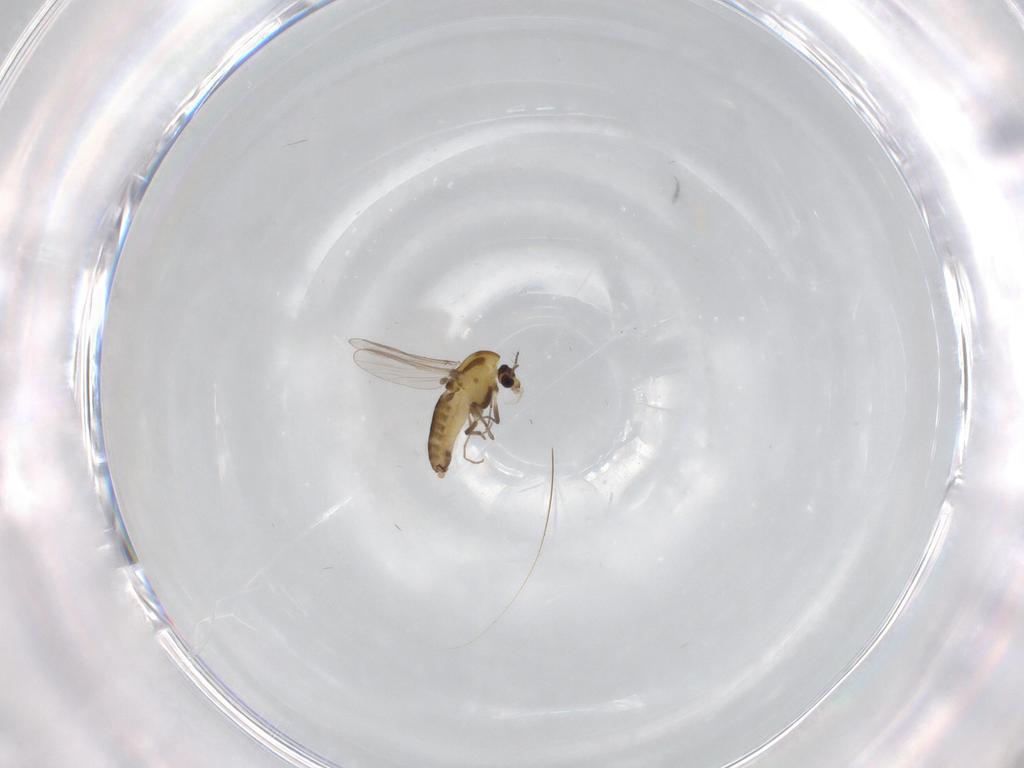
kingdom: Animalia
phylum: Arthropoda
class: Insecta
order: Diptera
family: Chironomidae
